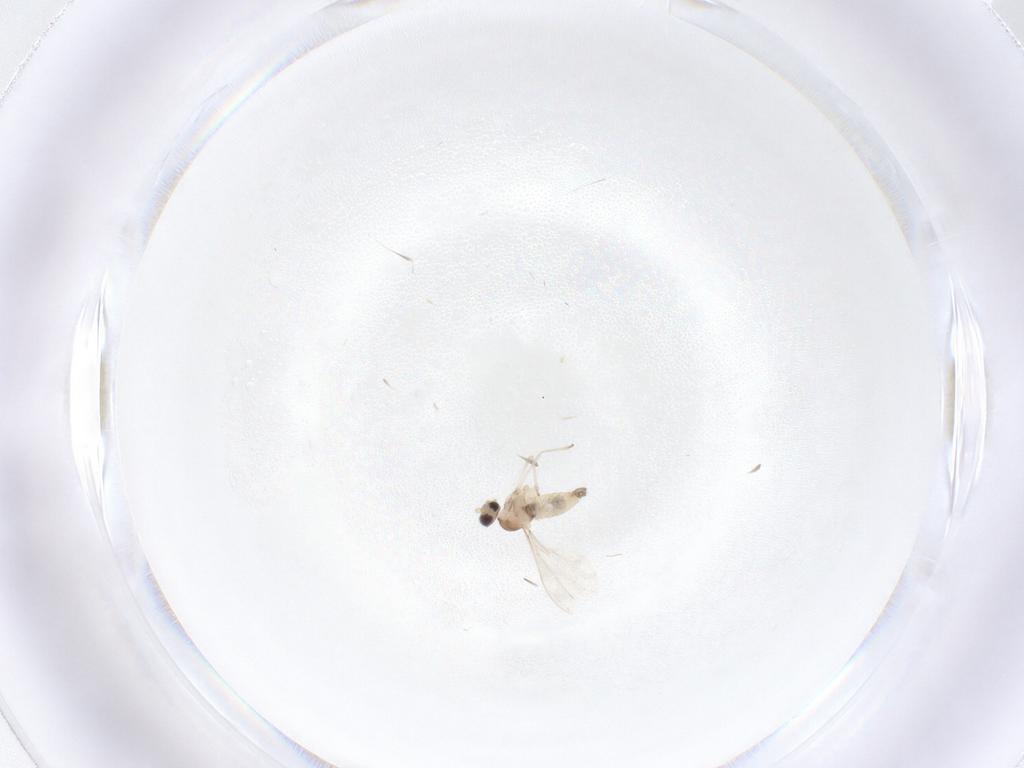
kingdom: Animalia
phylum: Arthropoda
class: Insecta
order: Diptera
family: Cecidomyiidae
